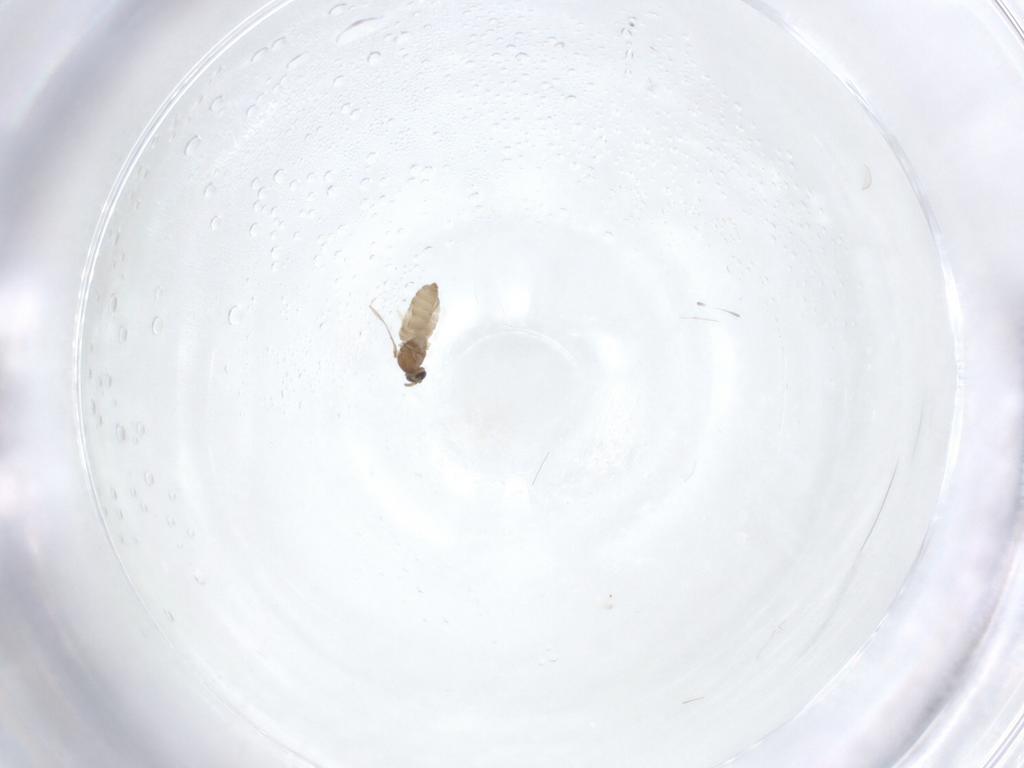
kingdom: Animalia
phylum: Arthropoda
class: Insecta
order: Diptera
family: Psychodidae
